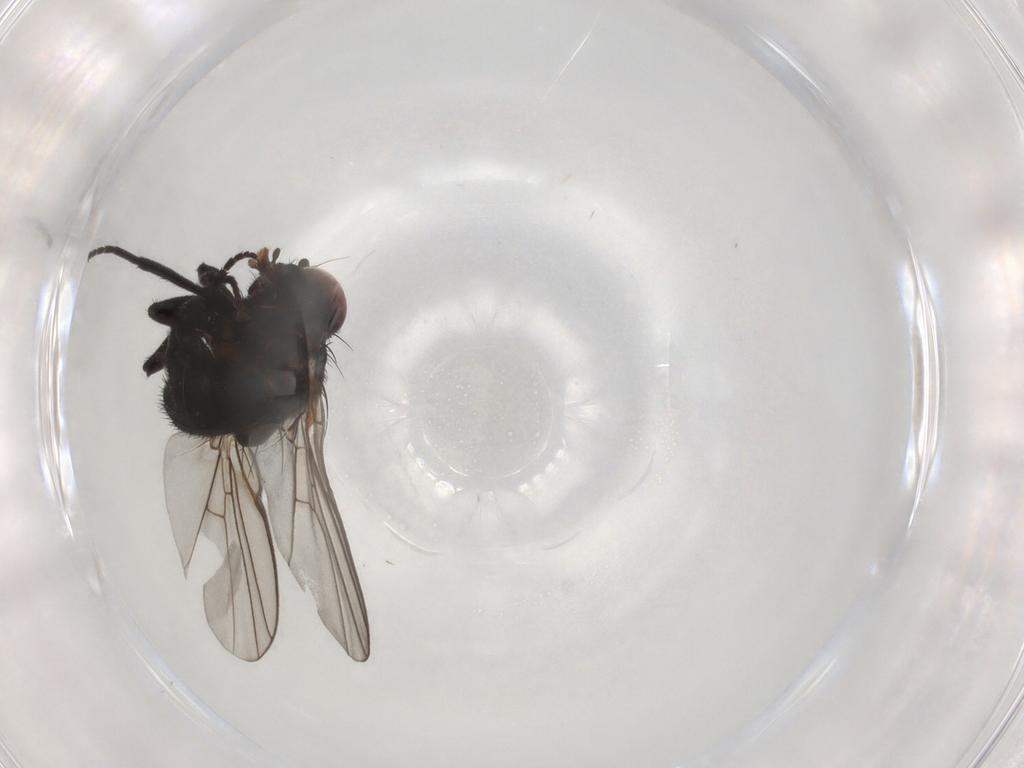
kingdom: Animalia
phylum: Arthropoda
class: Insecta
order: Diptera
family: Agromyzidae
